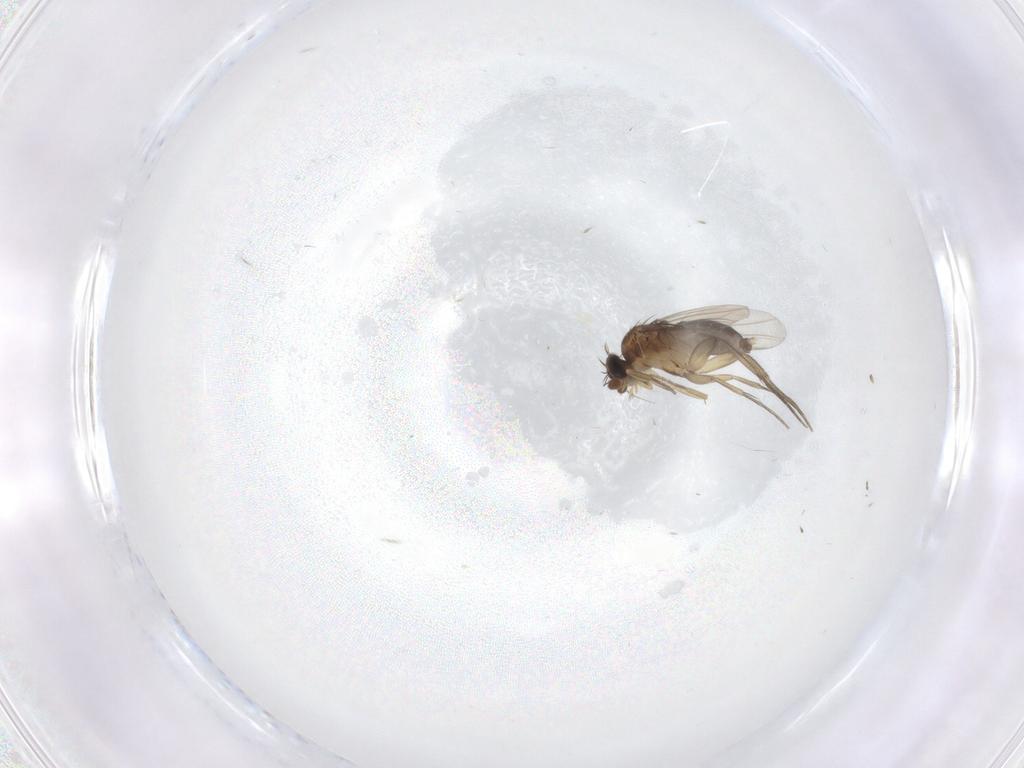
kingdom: Animalia
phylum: Arthropoda
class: Insecta
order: Diptera
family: Phoridae
